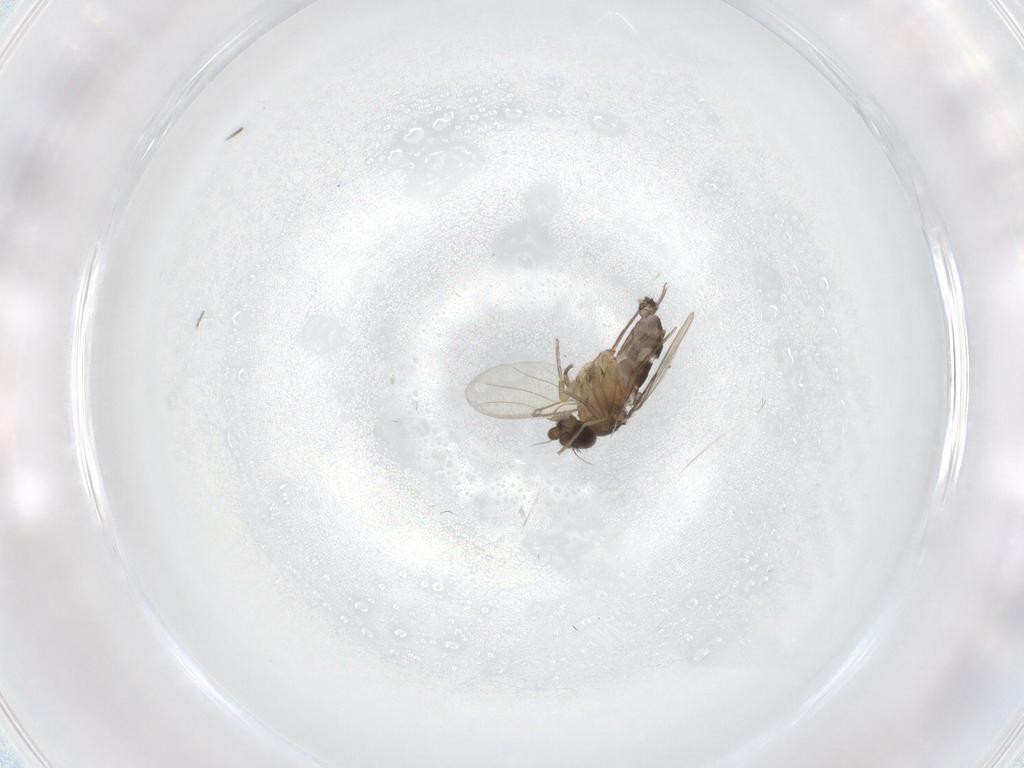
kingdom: Animalia
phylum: Arthropoda
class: Insecta
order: Diptera
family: Phoridae
